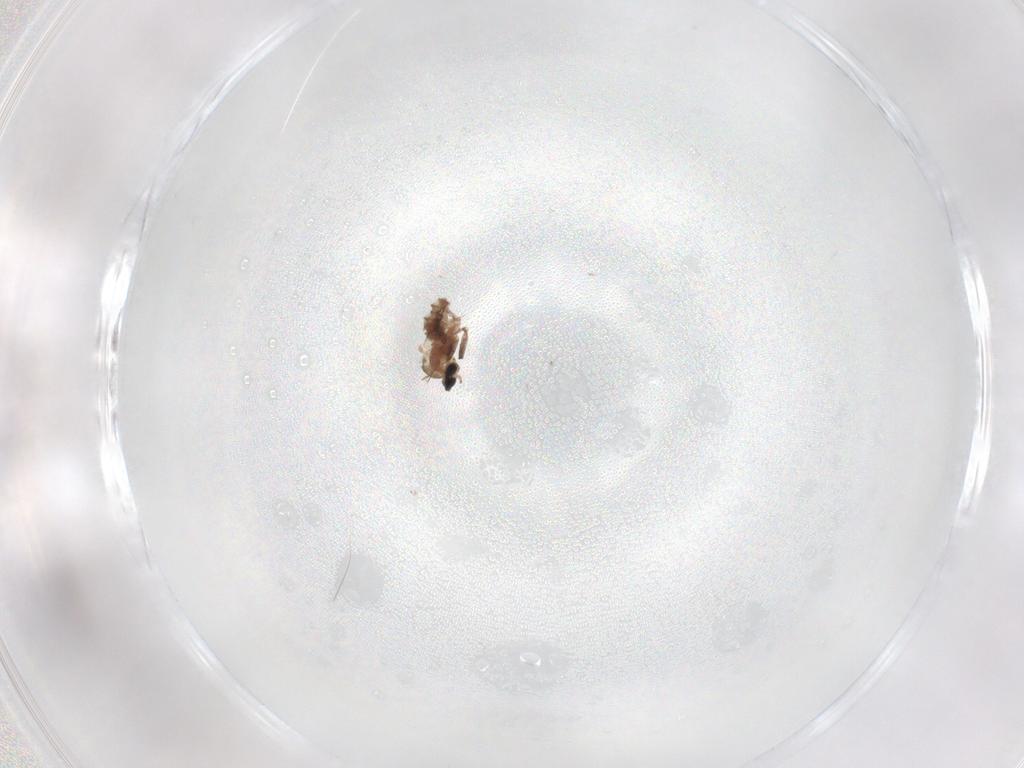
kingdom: Animalia
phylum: Arthropoda
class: Insecta
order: Diptera
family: Cecidomyiidae
